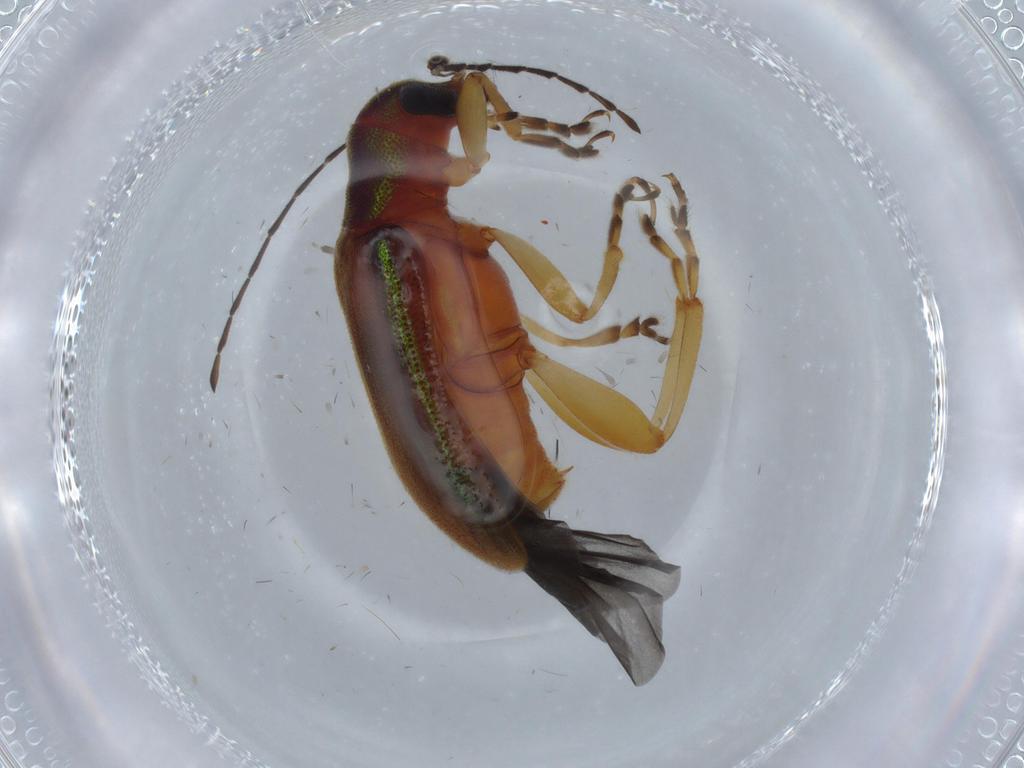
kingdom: Animalia
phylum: Arthropoda
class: Insecta
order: Coleoptera
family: Chrysomelidae
